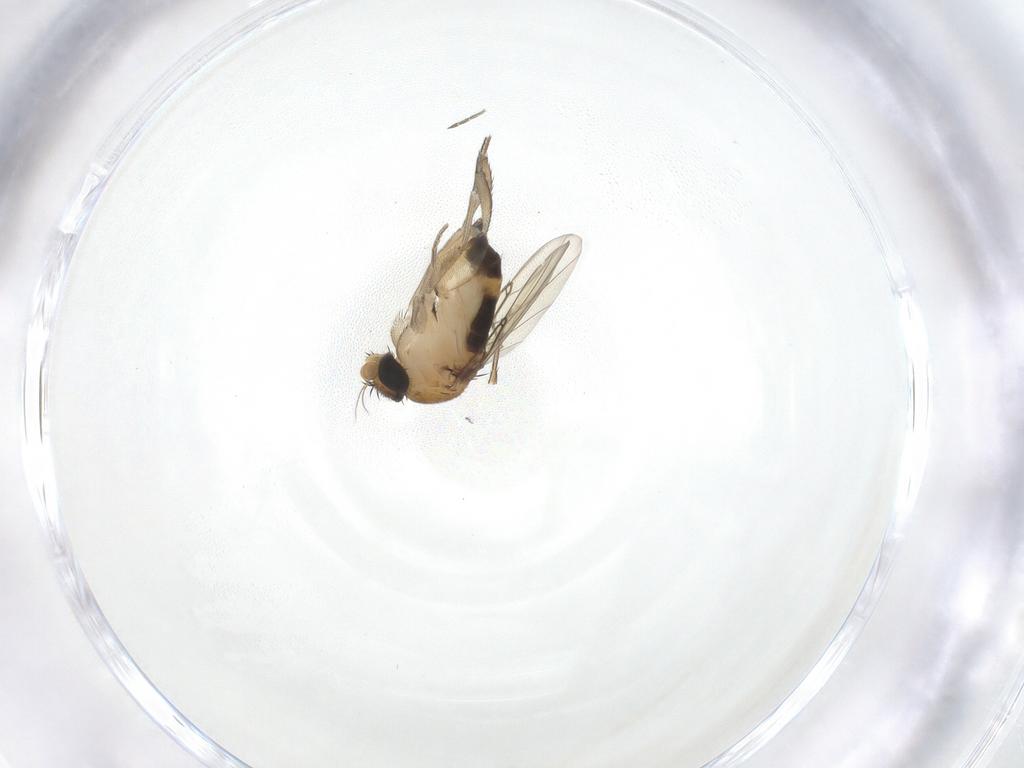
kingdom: Animalia
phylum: Arthropoda
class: Insecta
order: Diptera
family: Phoridae
